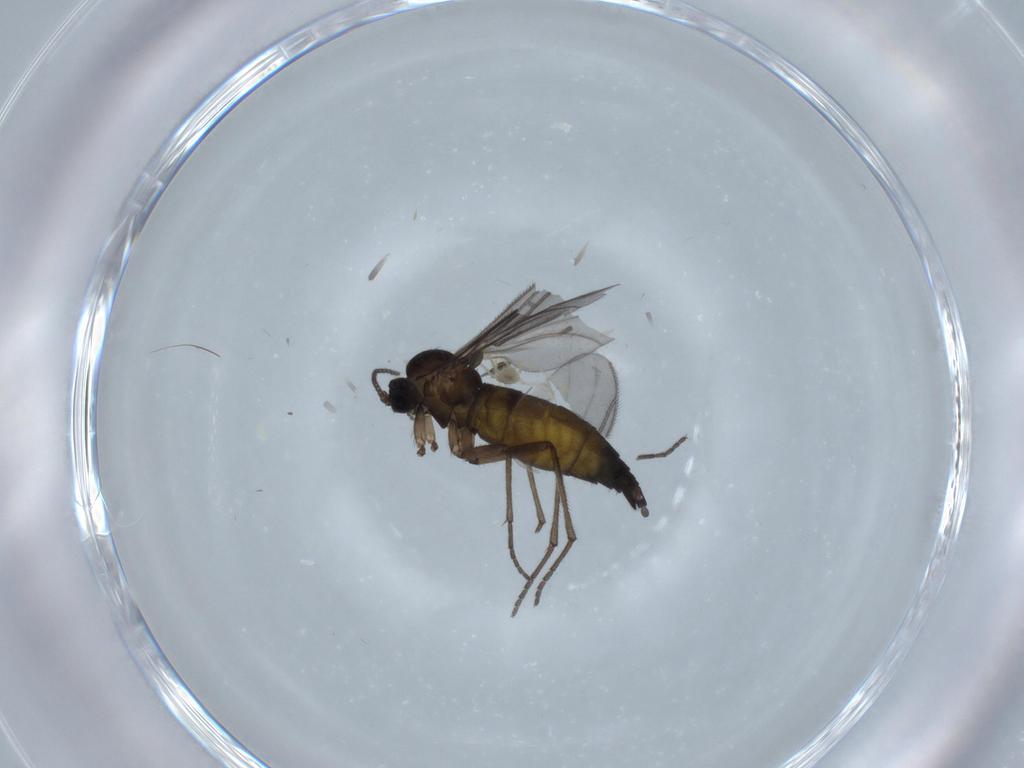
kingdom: Animalia
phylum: Arthropoda
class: Insecta
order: Diptera
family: Sciaridae
